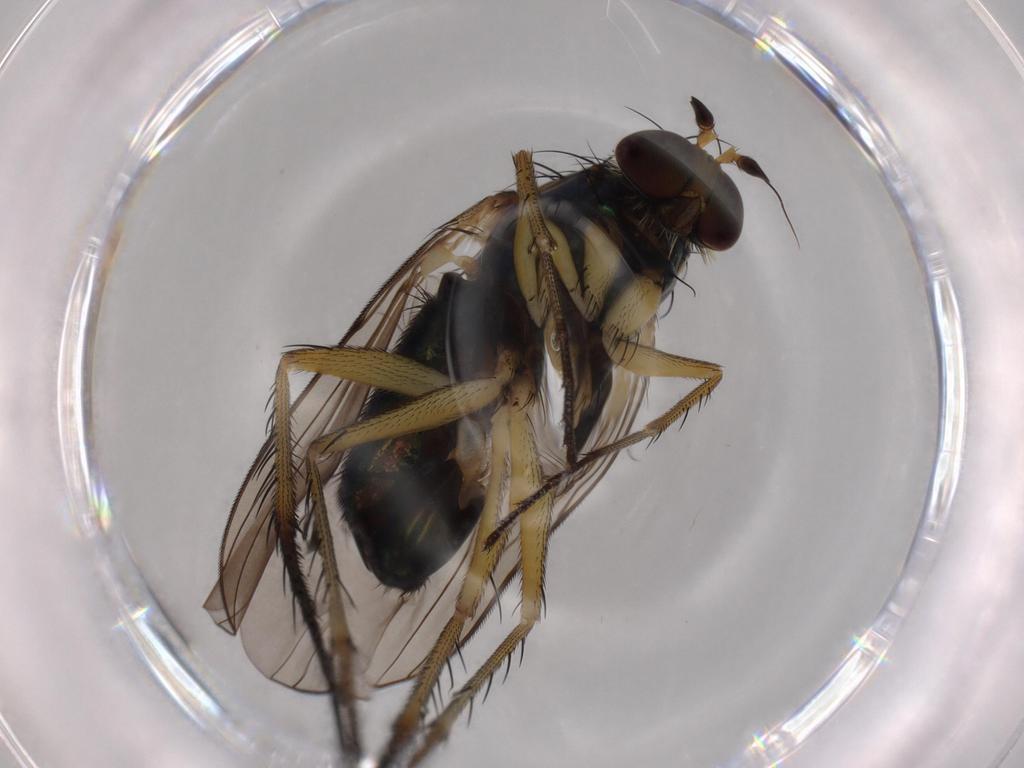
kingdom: Animalia
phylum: Arthropoda
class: Insecta
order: Diptera
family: Dolichopodidae
